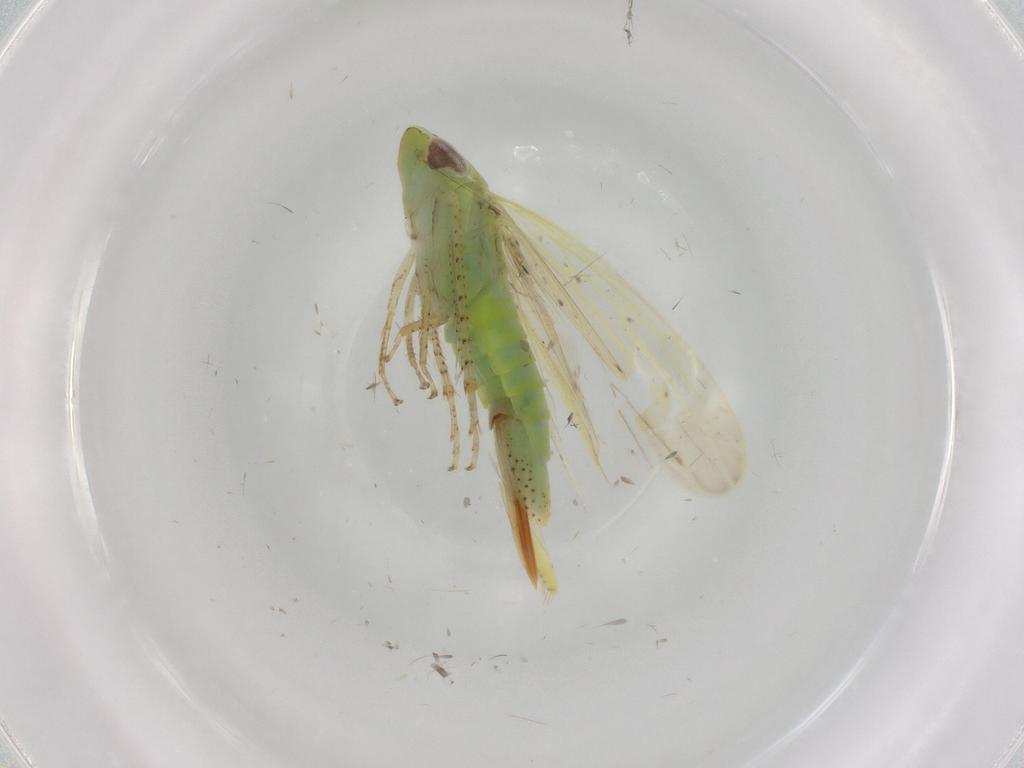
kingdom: Animalia
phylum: Arthropoda
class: Insecta
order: Hemiptera
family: Cicadellidae
